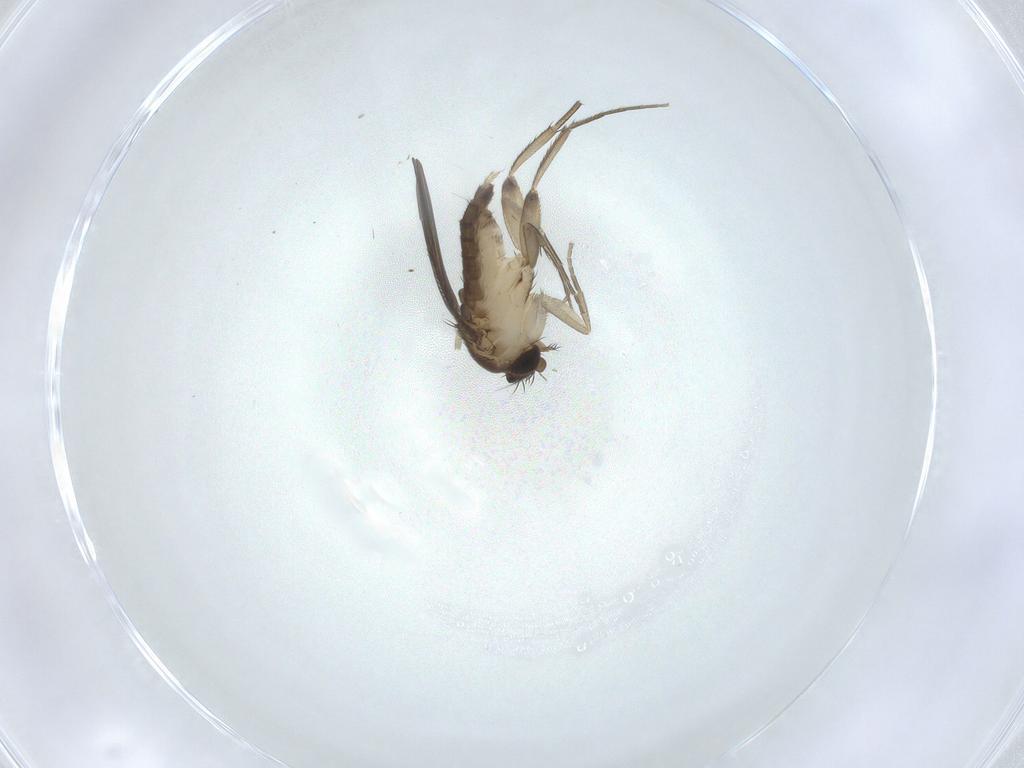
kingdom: Animalia
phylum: Arthropoda
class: Insecta
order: Diptera
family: Phoridae
